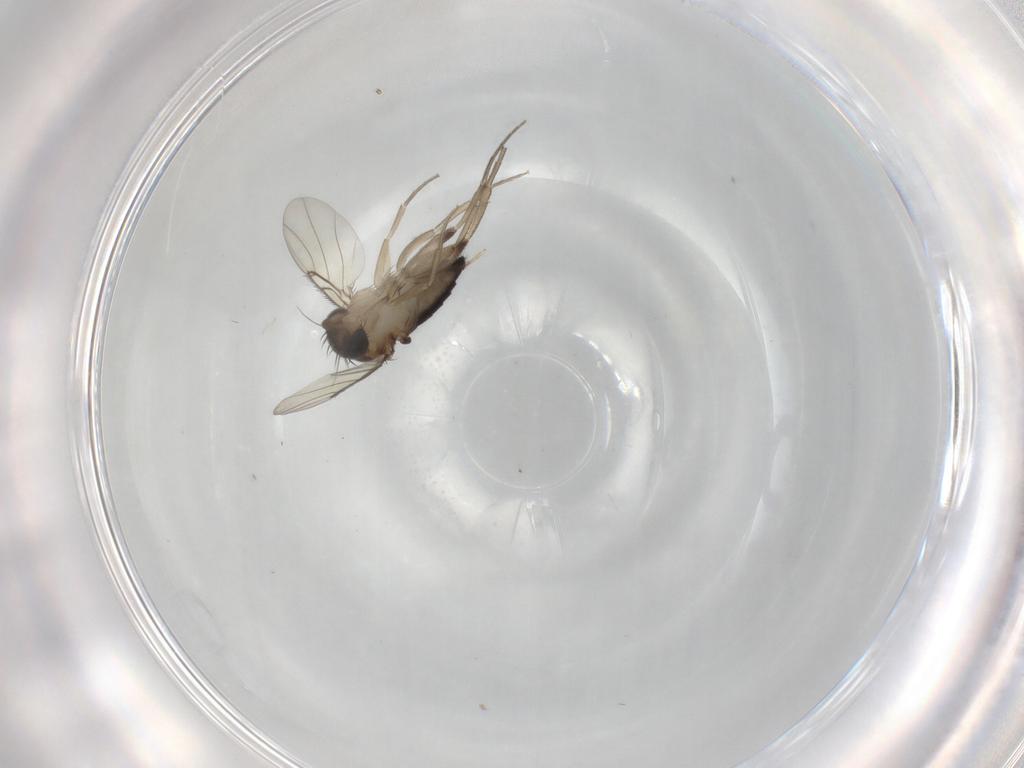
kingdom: Animalia
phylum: Arthropoda
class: Insecta
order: Diptera
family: Phoridae
